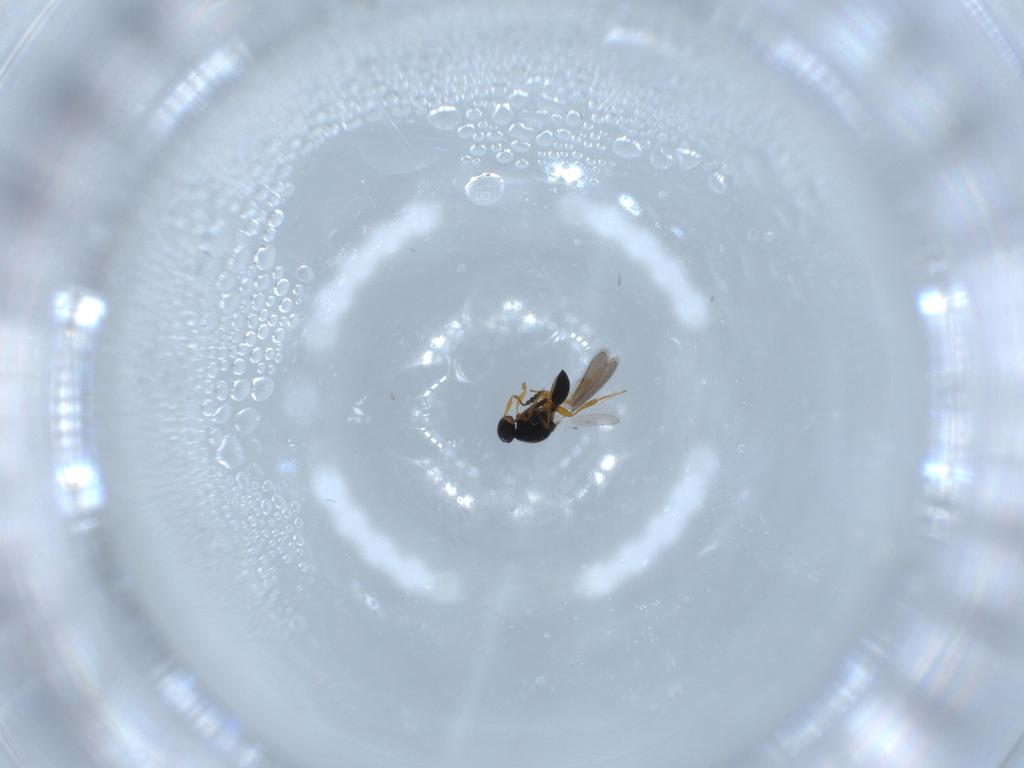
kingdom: Animalia
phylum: Arthropoda
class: Insecta
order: Hymenoptera
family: Platygastridae
